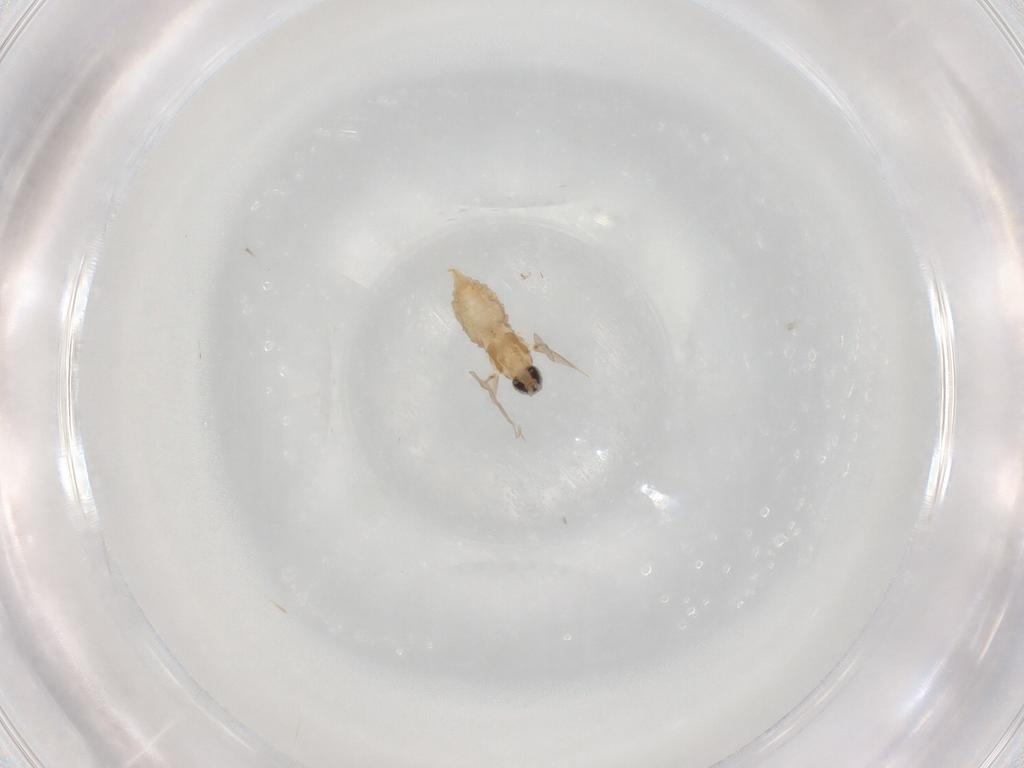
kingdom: Animalia
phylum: Arthropoda
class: Insecta
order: Diptera
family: Cecidomyiidae
